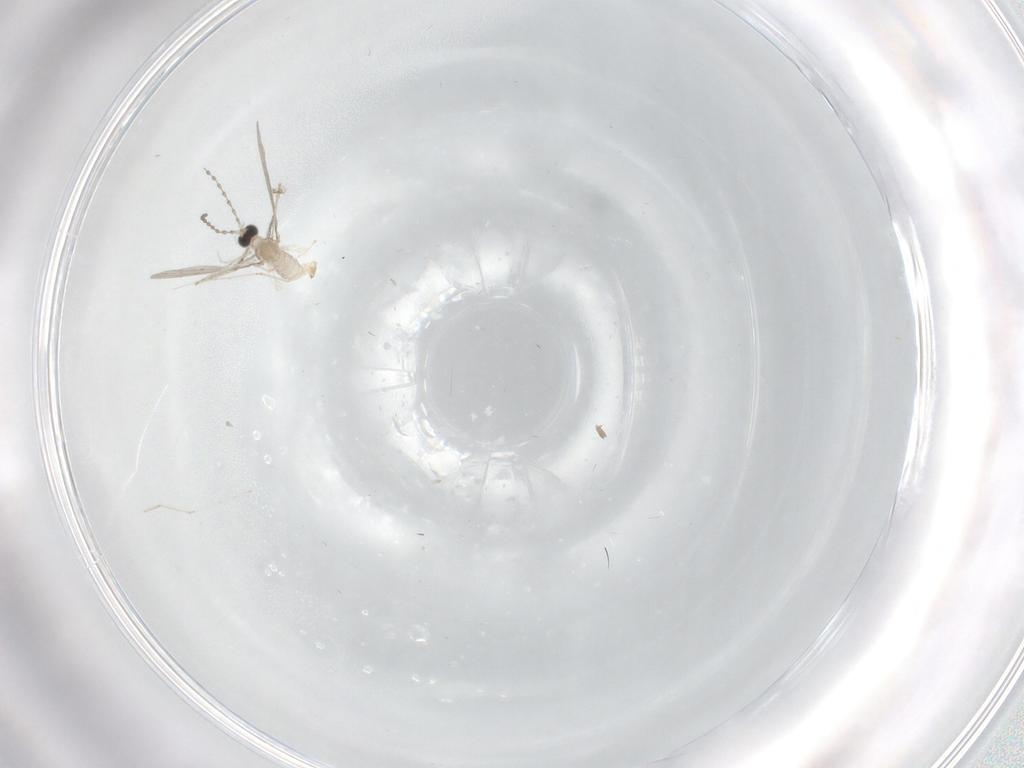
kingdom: Animalia
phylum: Arthropoda
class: Insecta
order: Diptera
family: Cecidomyiidae
